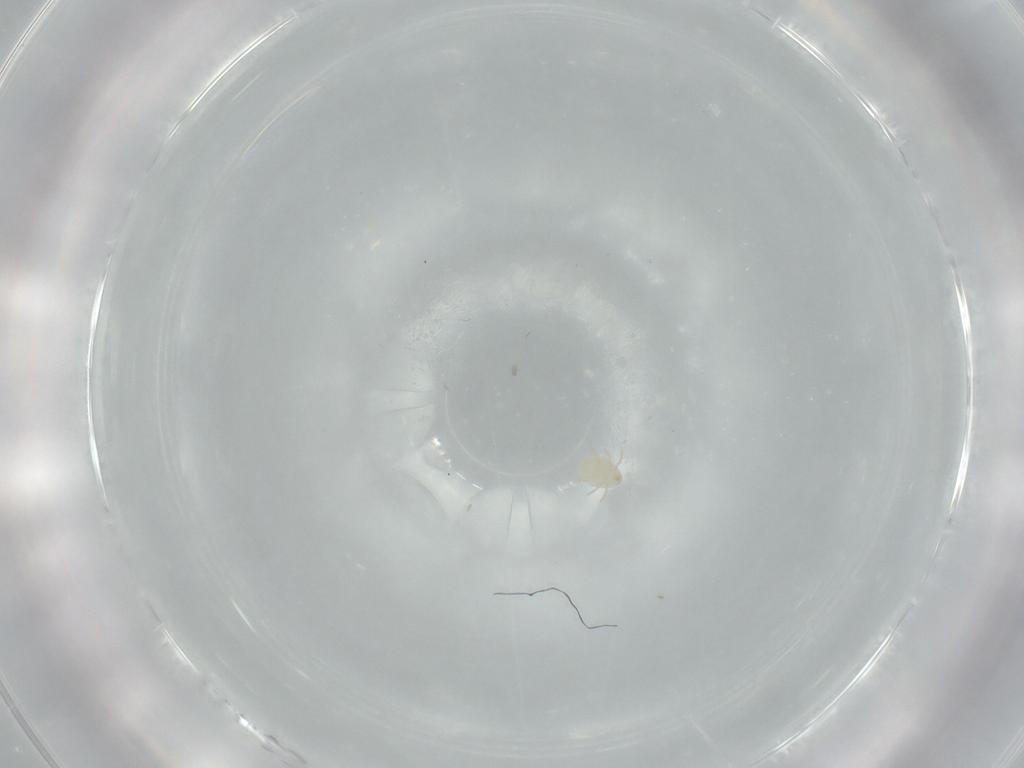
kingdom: Animalia
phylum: Arthropoda
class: Arachnida
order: Trombidiformes
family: Microtrombidiidae
